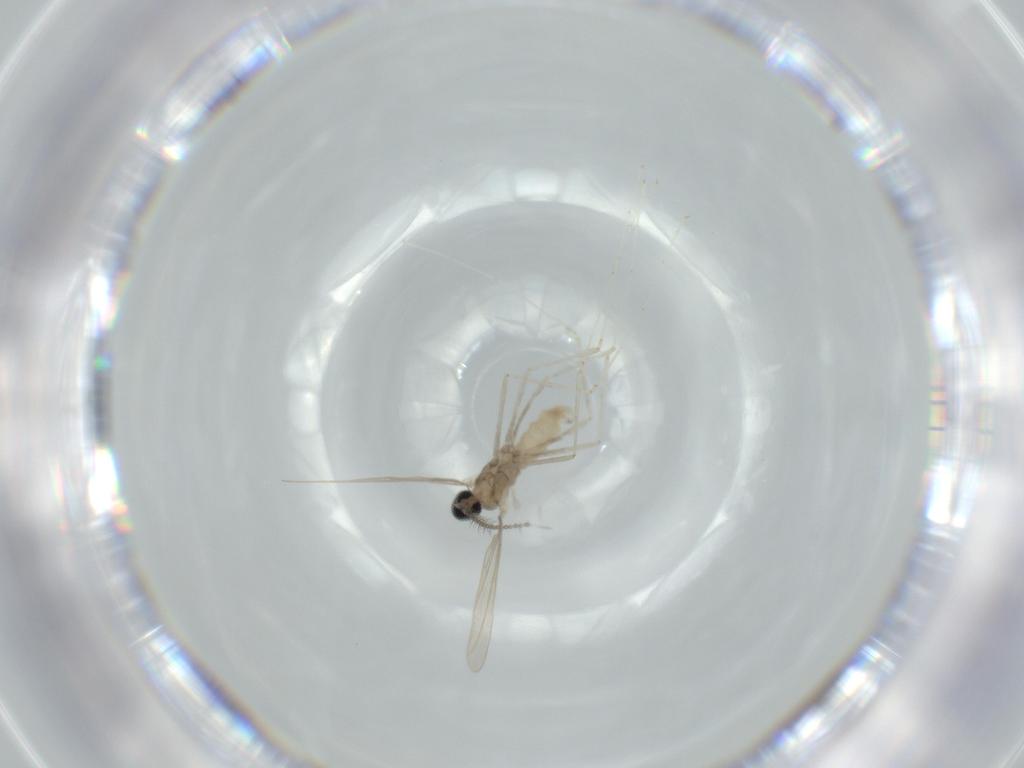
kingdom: Animalia
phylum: Arthropoda
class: Insecta
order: Diptera
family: Cecidomyiidae
